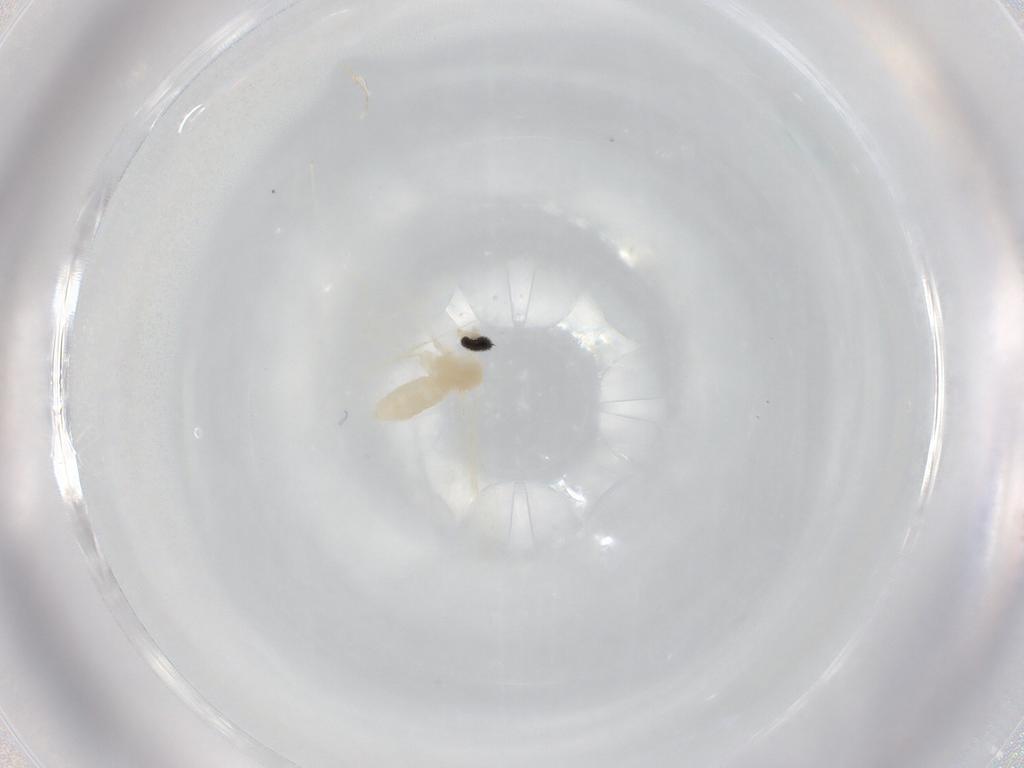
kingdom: Animalia
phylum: Arthropoda
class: Insecta
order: Diptera
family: Cecidomyiidae
